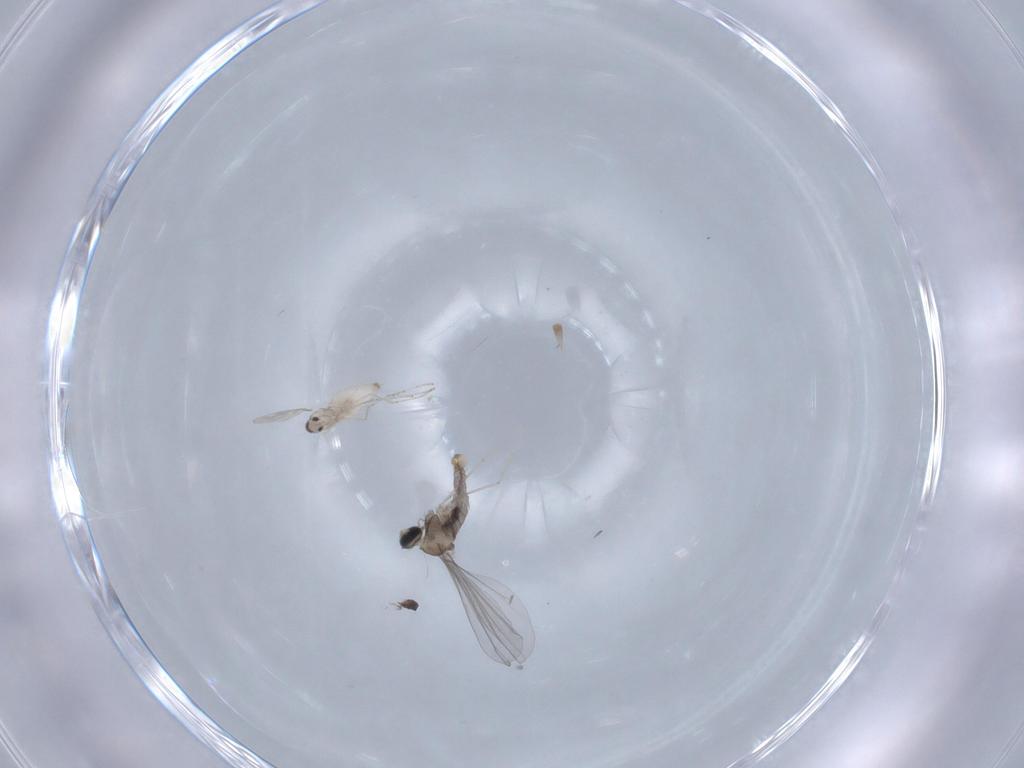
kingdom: Animalia
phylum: Arthropoda
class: Insecta
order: Diptera
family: Cecidomyiidae
